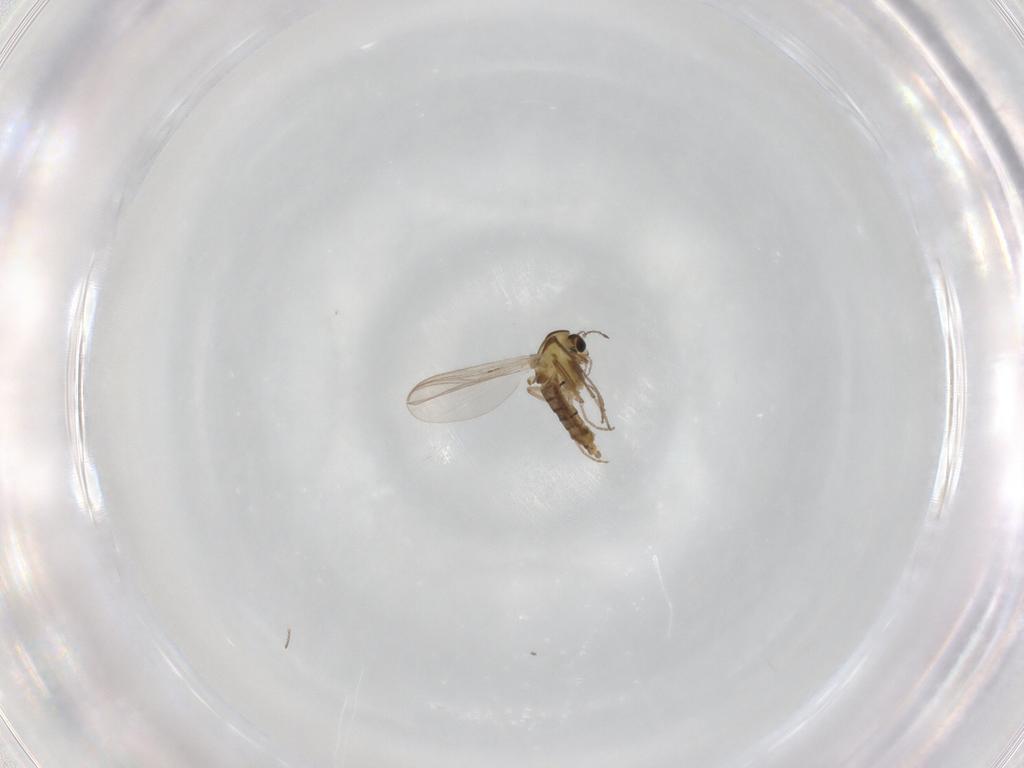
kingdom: Animalia
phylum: Arthropoda
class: Insecta
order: Diptera
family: Chironomidae
